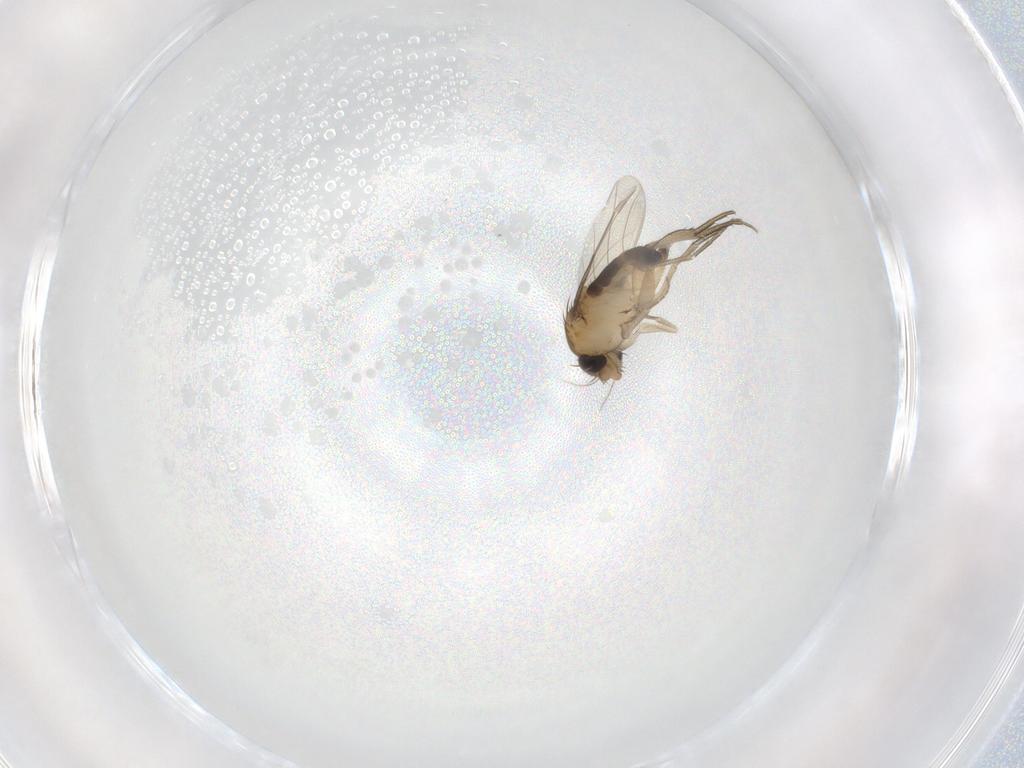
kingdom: Animalia
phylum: Arthropoda
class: Insecta
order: Diptera
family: Phoridae
